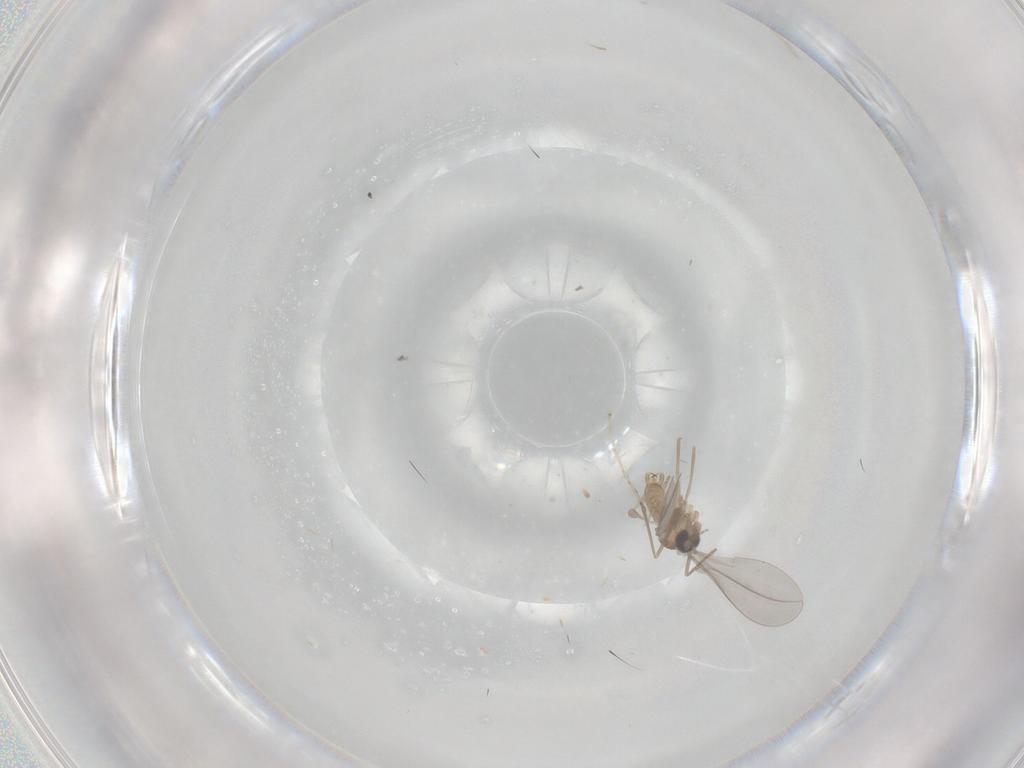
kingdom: Animalia
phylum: Arthropoda
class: Insecta
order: Diptera
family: Cecidomyiidae
